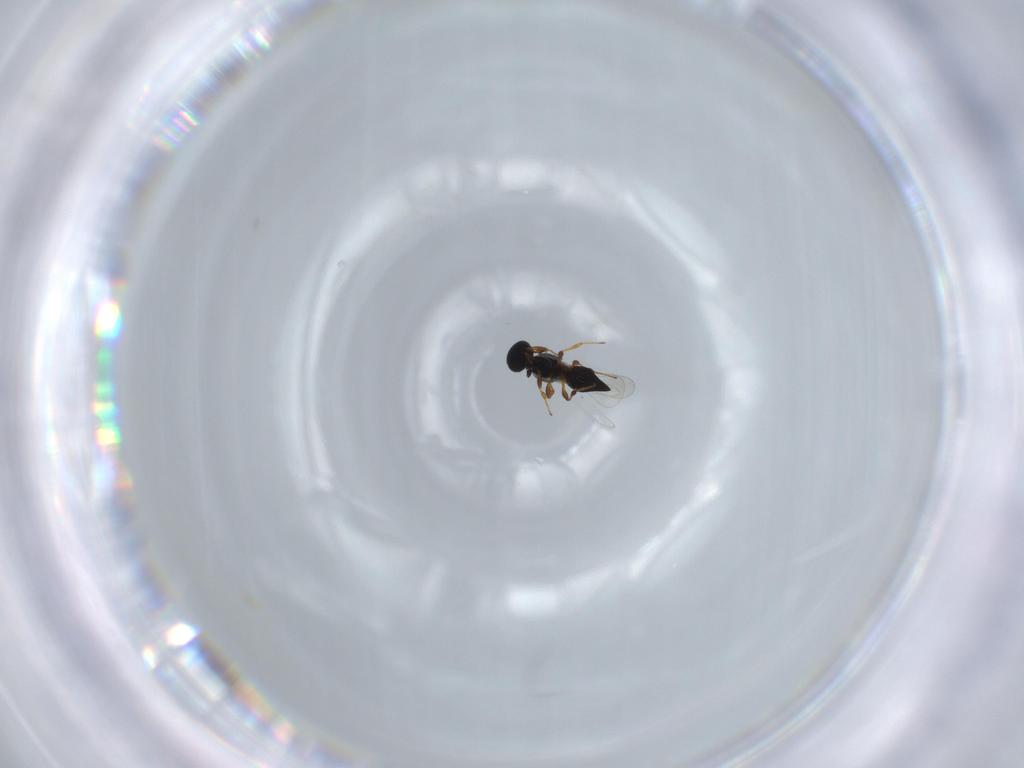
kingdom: Animalia
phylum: Arthropoda
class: Insecta
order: Hymenoptera
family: Platygastridae
